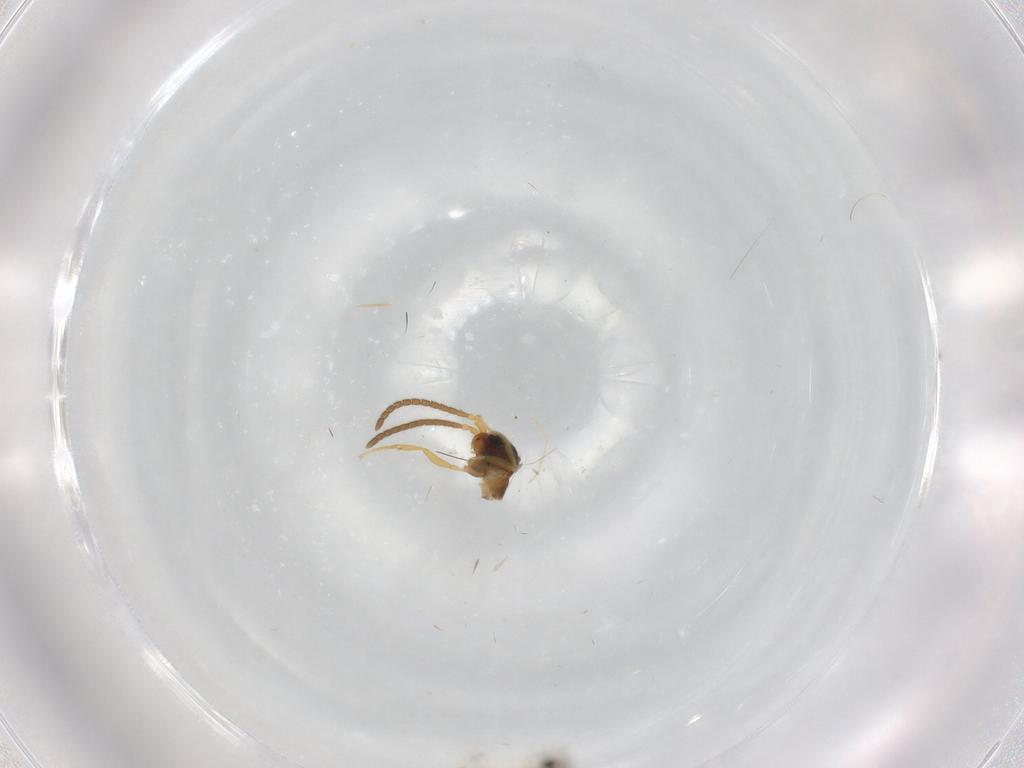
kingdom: Animalia
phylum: Arthropoda
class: Insecta
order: Diptera
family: Chironomidae
